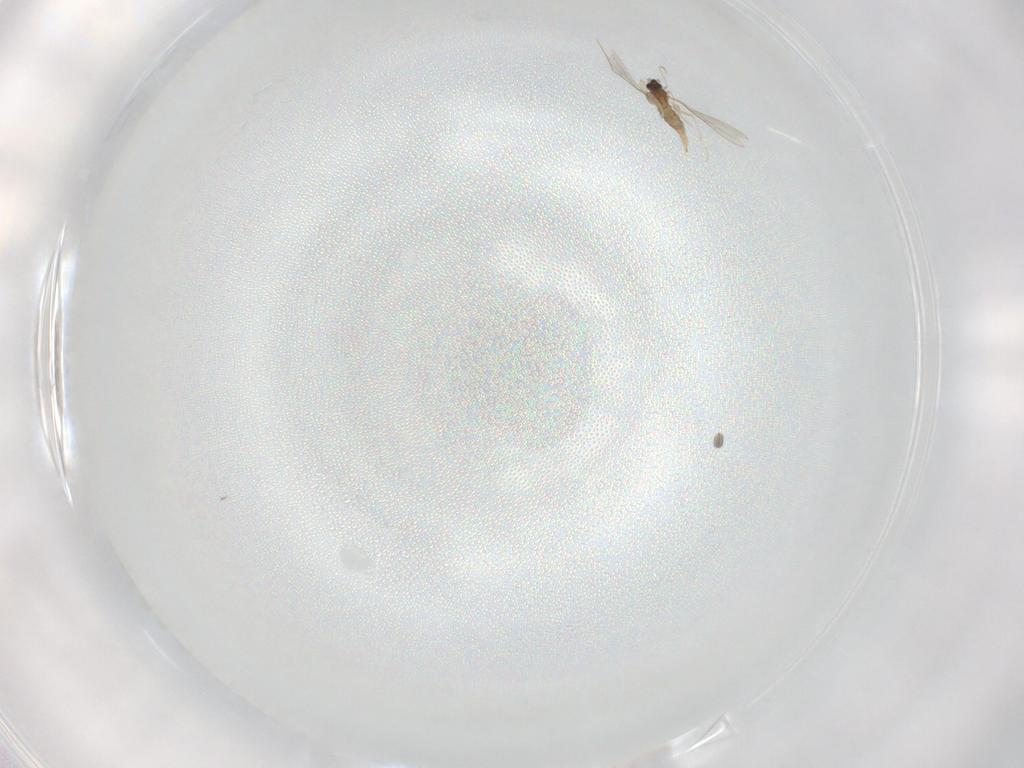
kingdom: Animalia
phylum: Arthropoda
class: Insecta
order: Diptera
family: Cecidomyiidae
